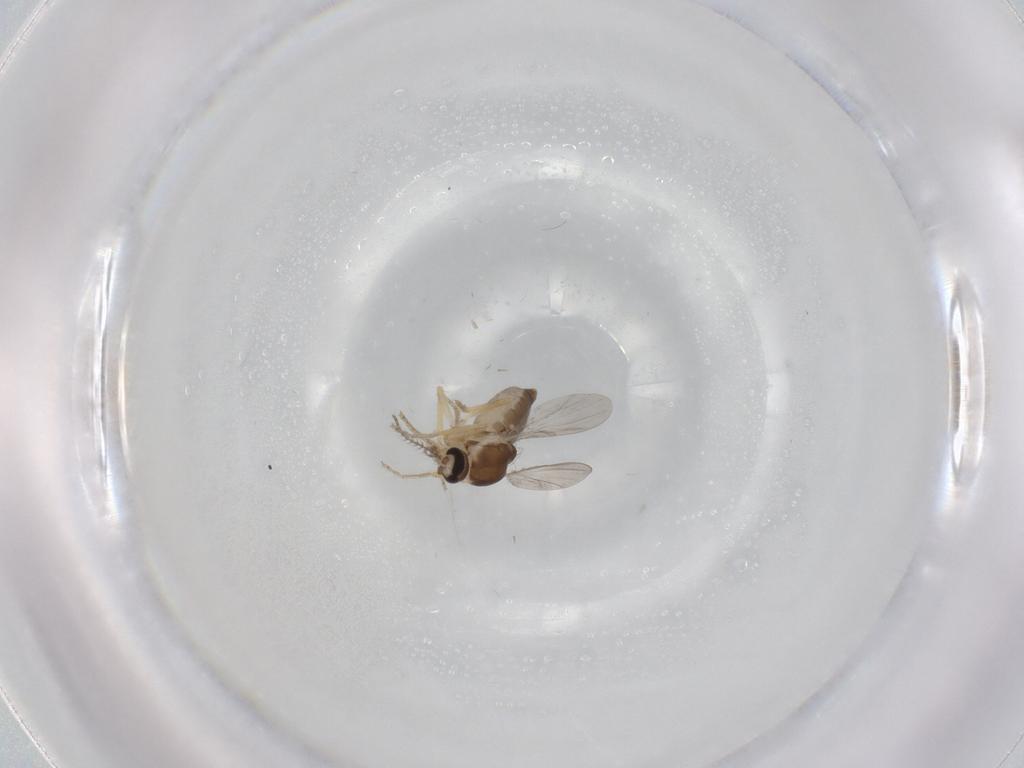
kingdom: Animalia
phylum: Arthropoda
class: Insecta
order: Diptera
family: Ceratopogonidae
